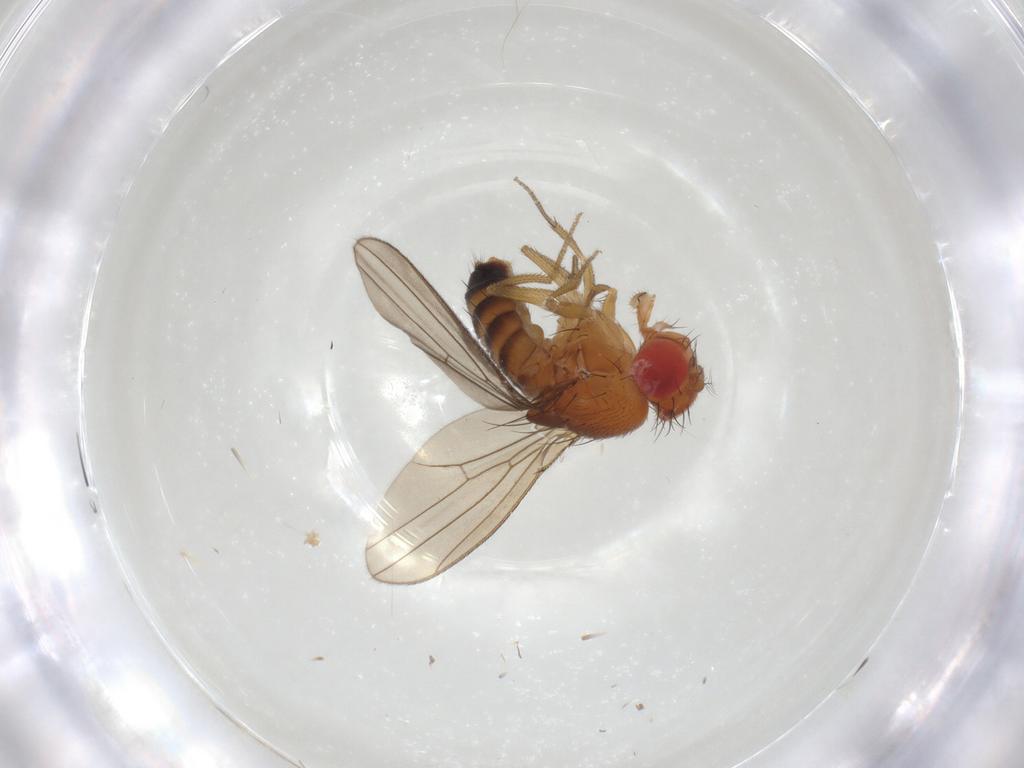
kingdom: Animalia
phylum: Arthropoda
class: Insecta
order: Diptera
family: Drosophilidae
